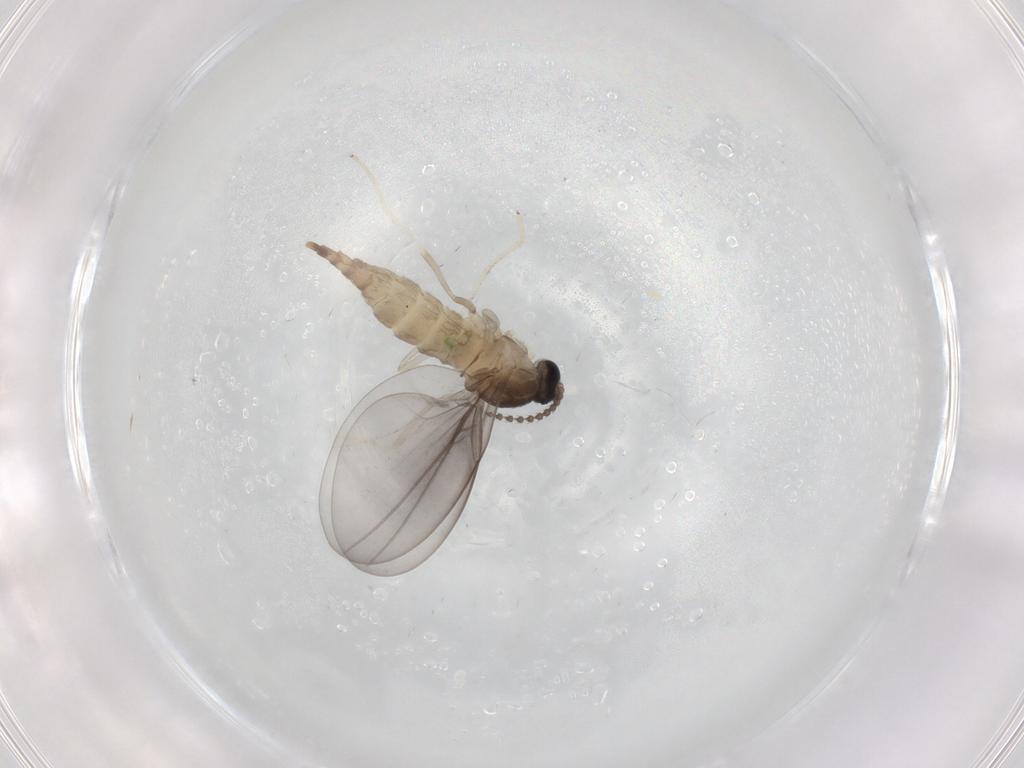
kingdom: Animalia
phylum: Arthropoda
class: Insecta
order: Diptera
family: Cecidomyiidae
